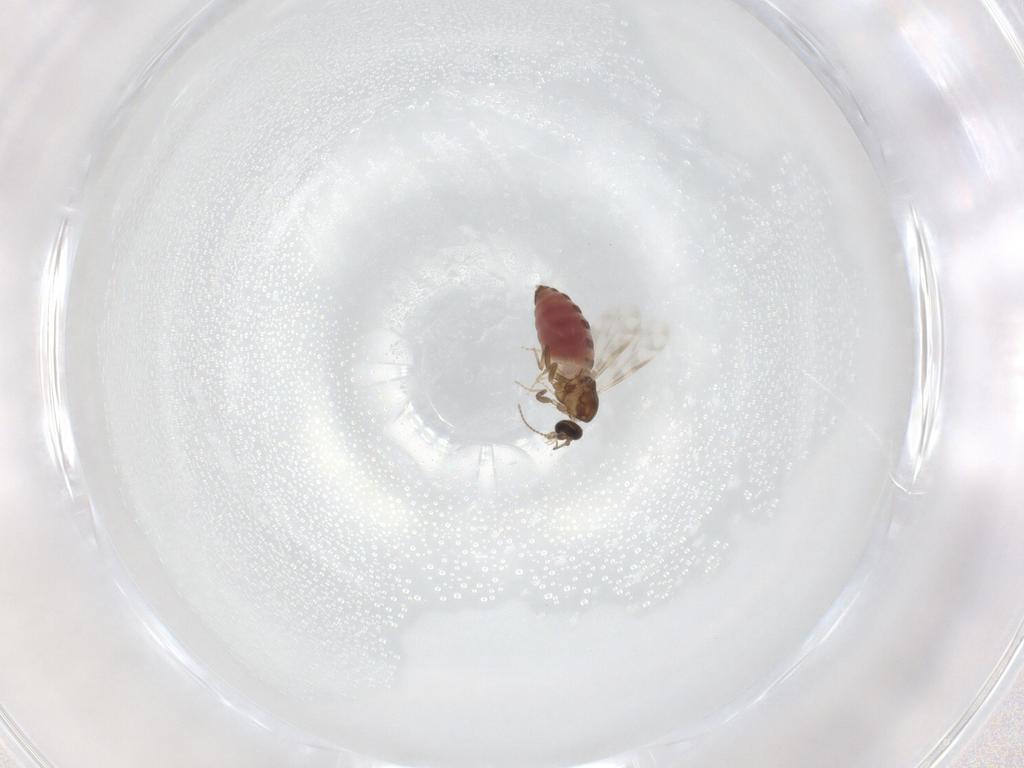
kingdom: Animalia
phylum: Arthropoda
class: Insecta
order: Diptera
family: Ceratopogonidae
